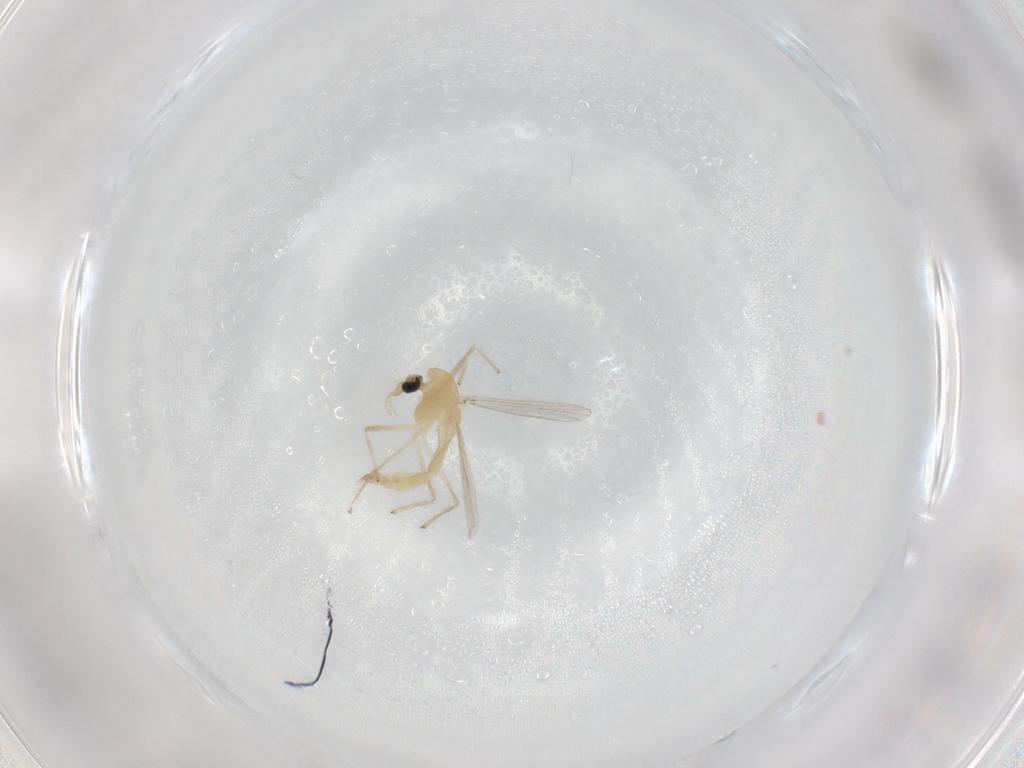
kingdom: Animalia
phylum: Arthropoda
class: Insecta
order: Diptera
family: Chironomidae
